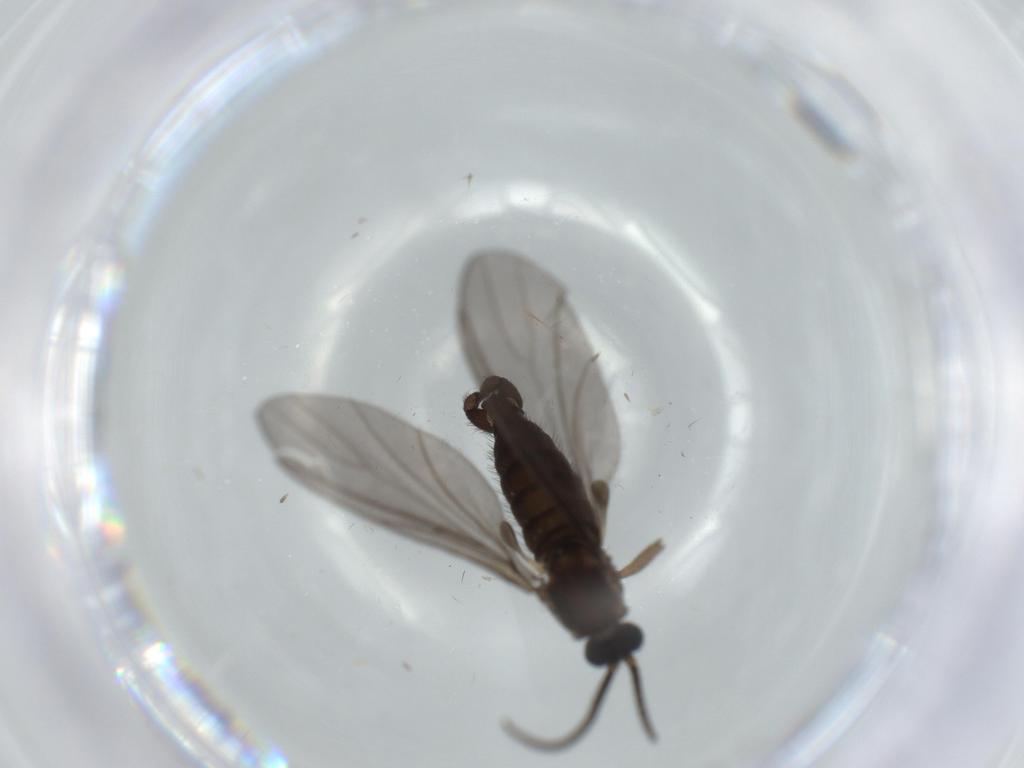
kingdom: Animalia
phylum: Arthropoda
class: Insecta
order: Diptera
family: Sciaridae
